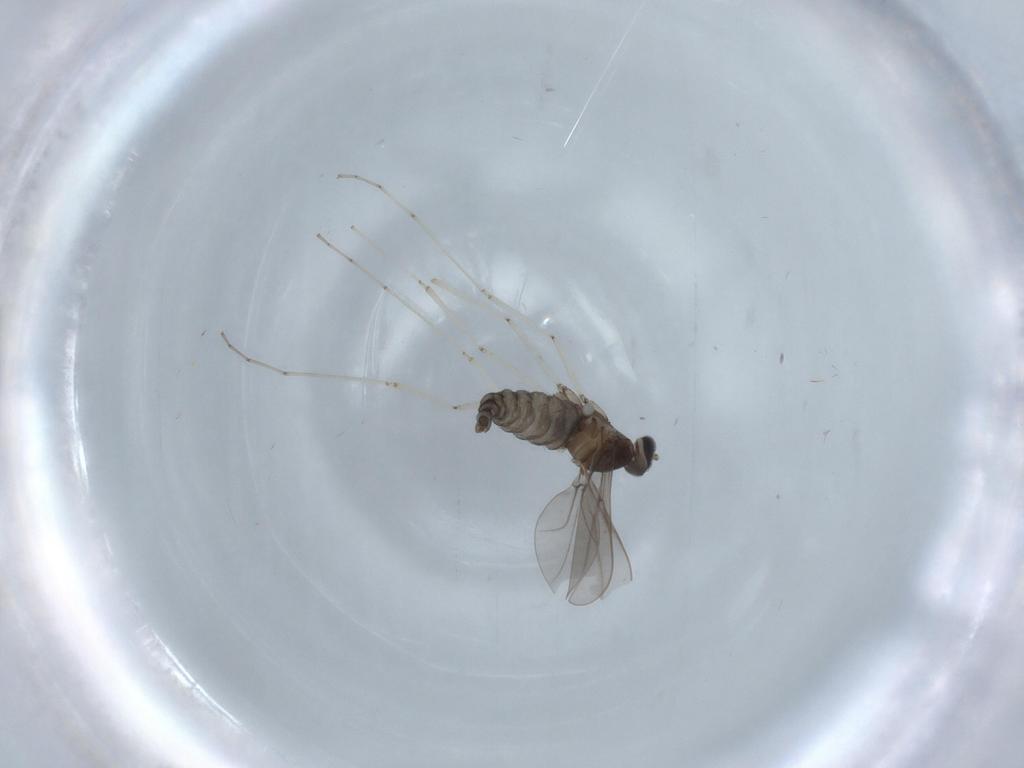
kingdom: Animalia
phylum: Arthropoda
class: Insecta
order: Diptera
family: Cecidomyiidae
